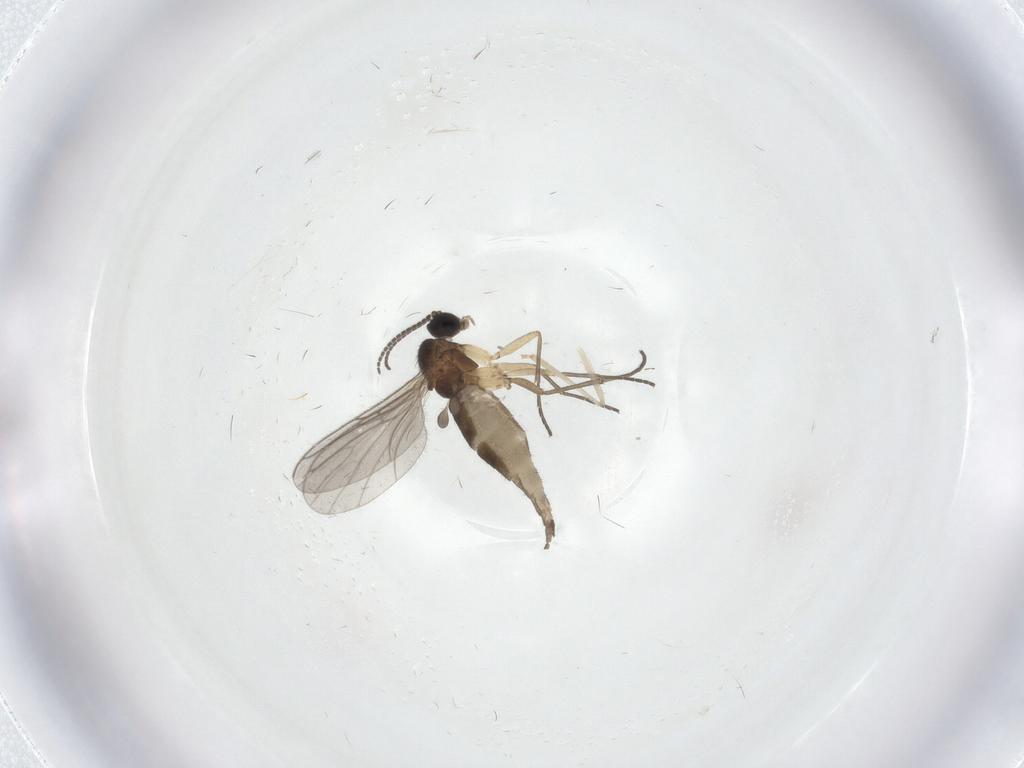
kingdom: Animalia
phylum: Arthropoda
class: Insecta
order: Diptera
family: Sciaridae
